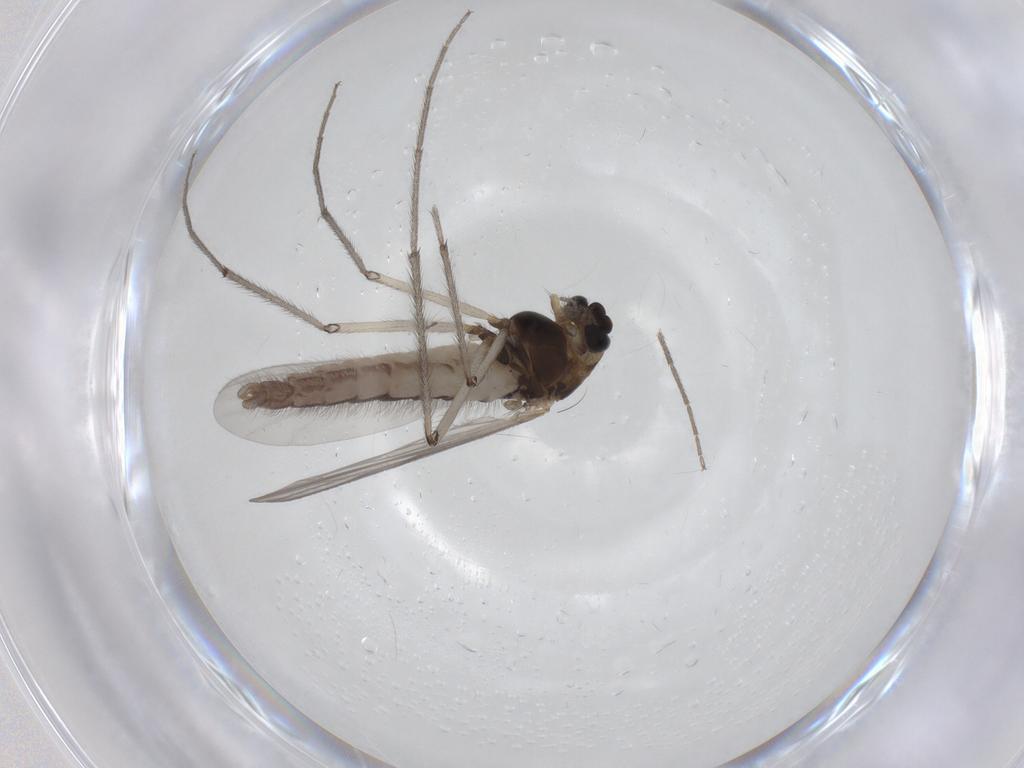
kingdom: Animalia
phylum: Arthropoda
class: Insecta
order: Diptera
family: Chironomidae
